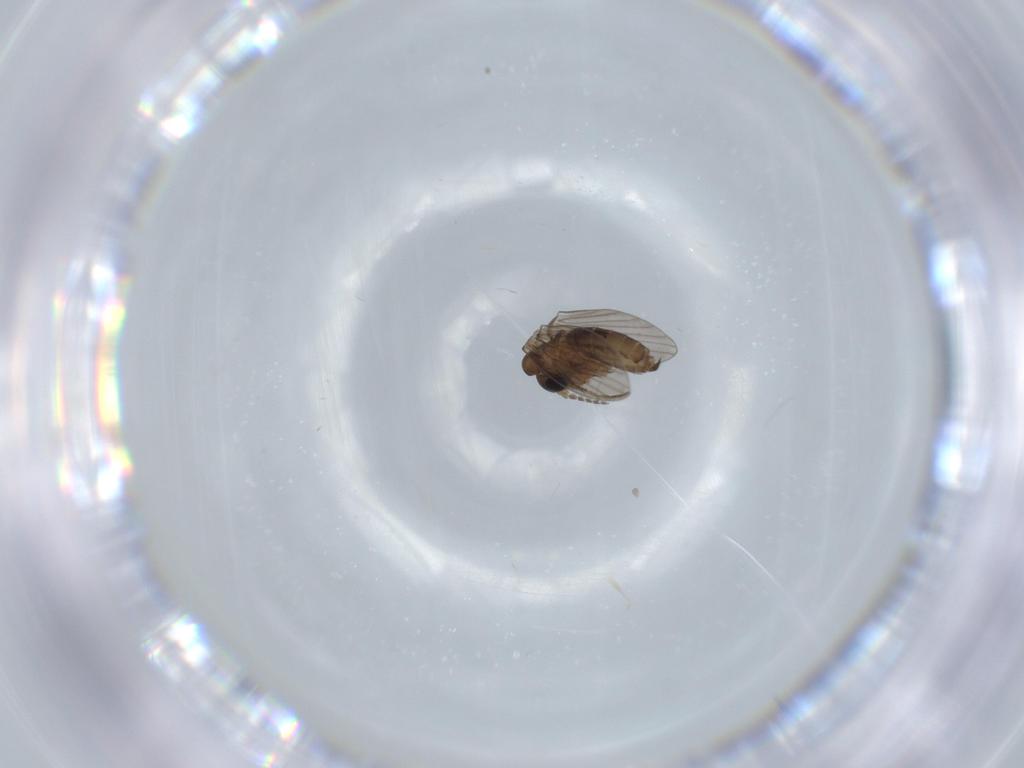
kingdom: Animalia
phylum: Arthropoda
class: Insecta
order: Diptera
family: Psychodidae
